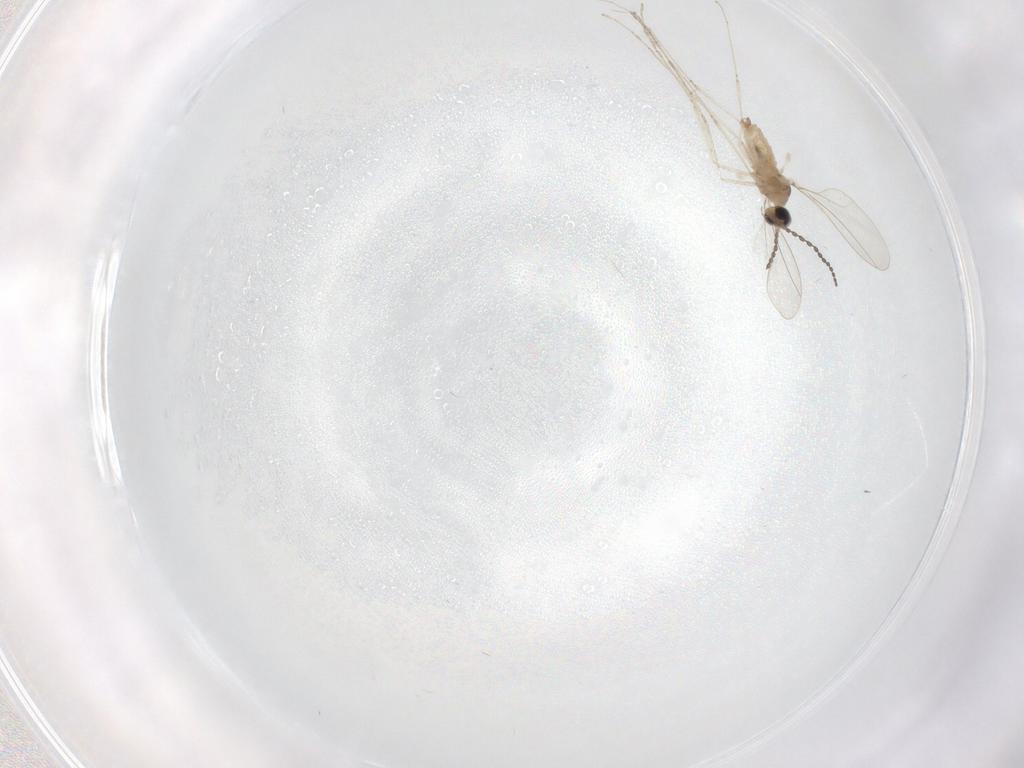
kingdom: Animalia
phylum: Arthropoda
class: Insecta
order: Diptera
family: Cecidomyiidae
